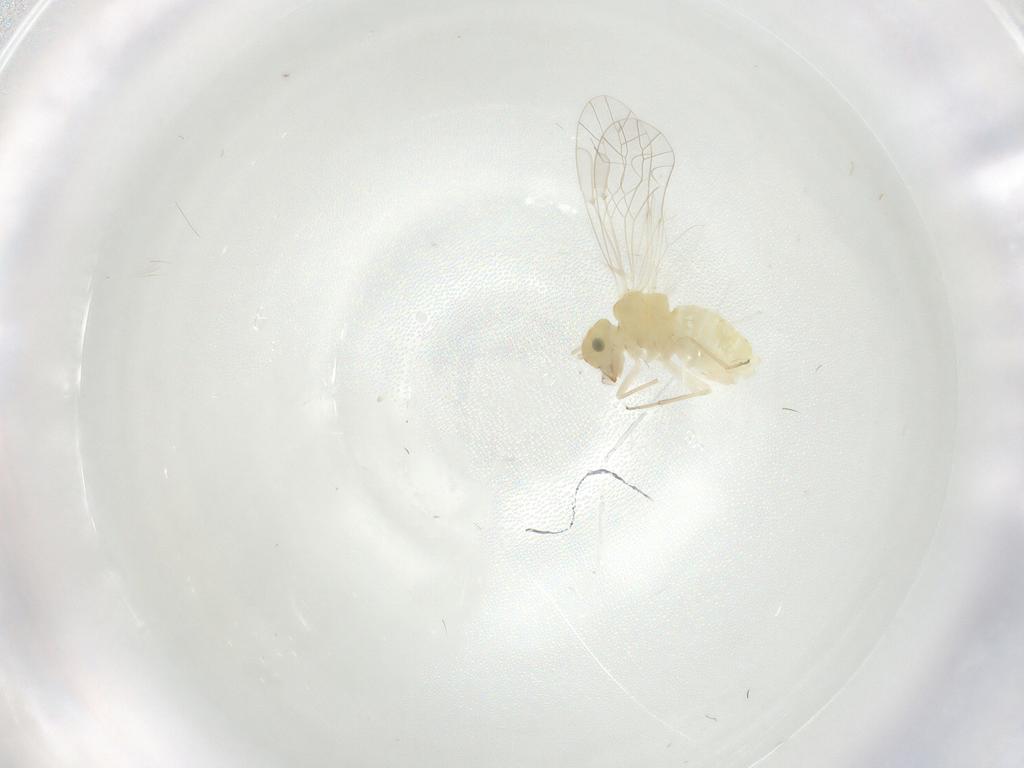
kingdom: Animalia
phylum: Arthropoda
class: Insecta
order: Psocodea
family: Lachesillidae
